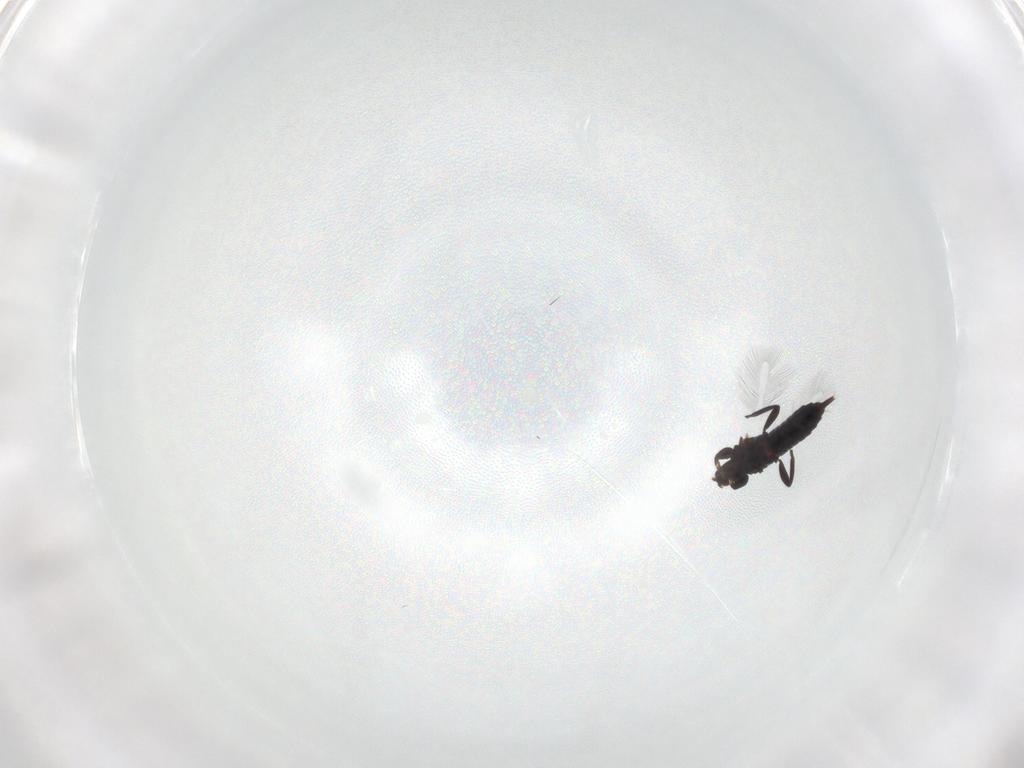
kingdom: Animalia
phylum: Arthropoda
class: Insecta
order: Thysanoptera
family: Phlaeothripidae
